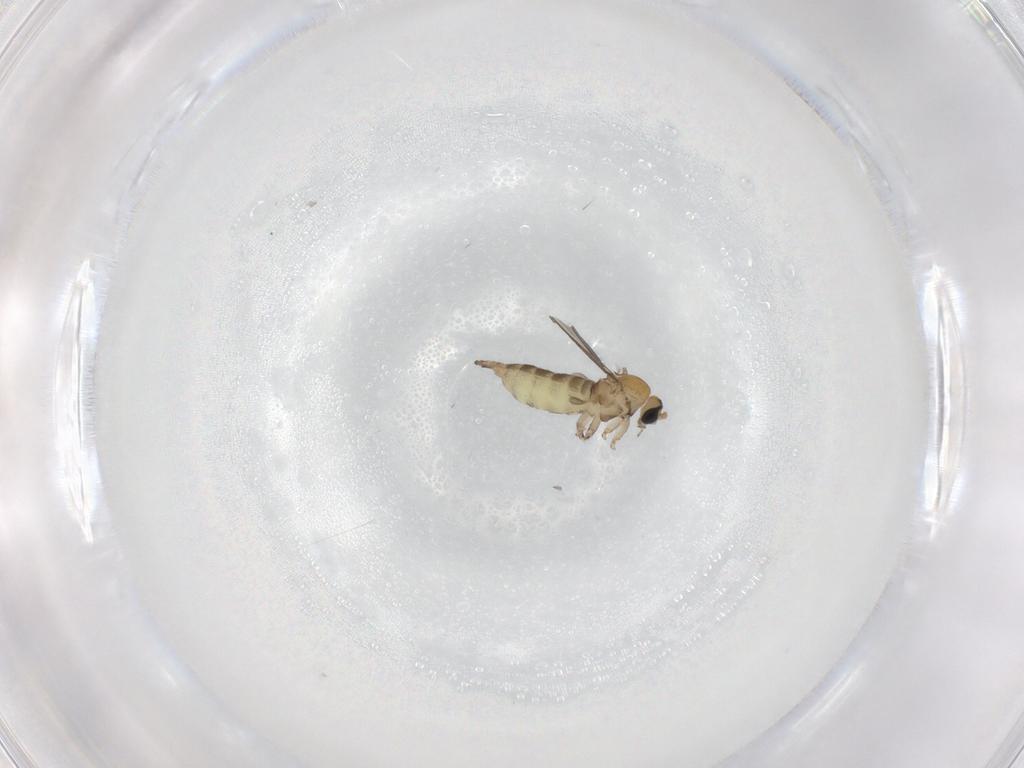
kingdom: Animalia
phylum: Arthropoda
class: Insecta
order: Diptera
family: Sciaridae
